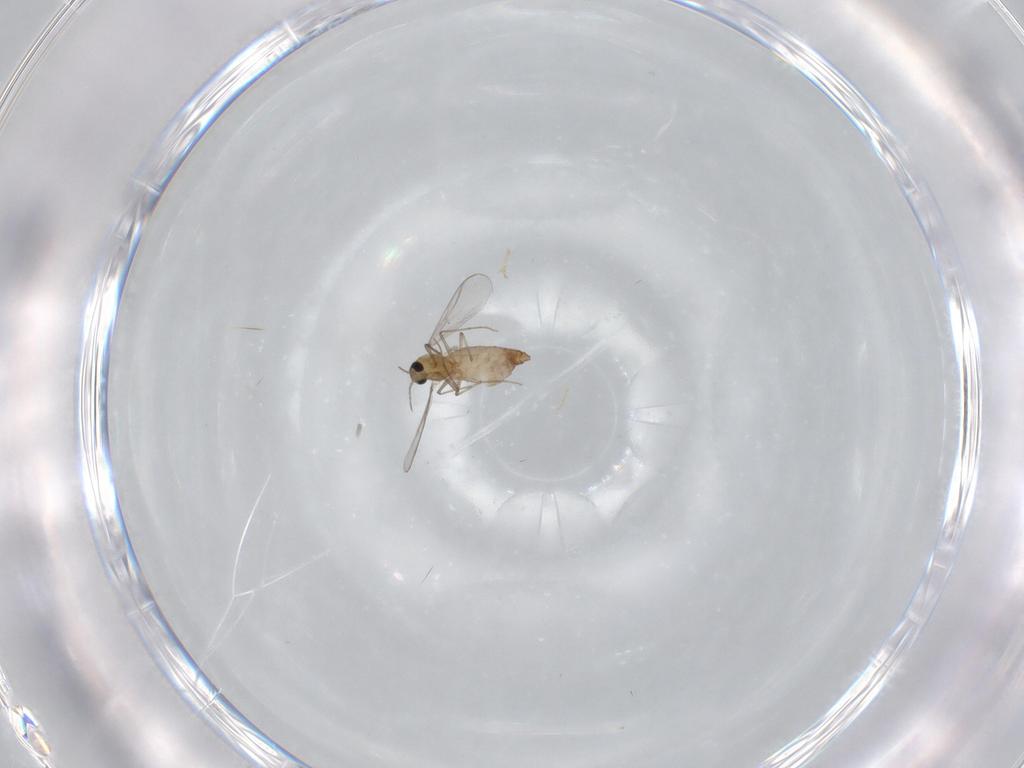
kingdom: Animalia
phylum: Arthropoda
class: Insecta
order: Diptera
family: Chironomidae
